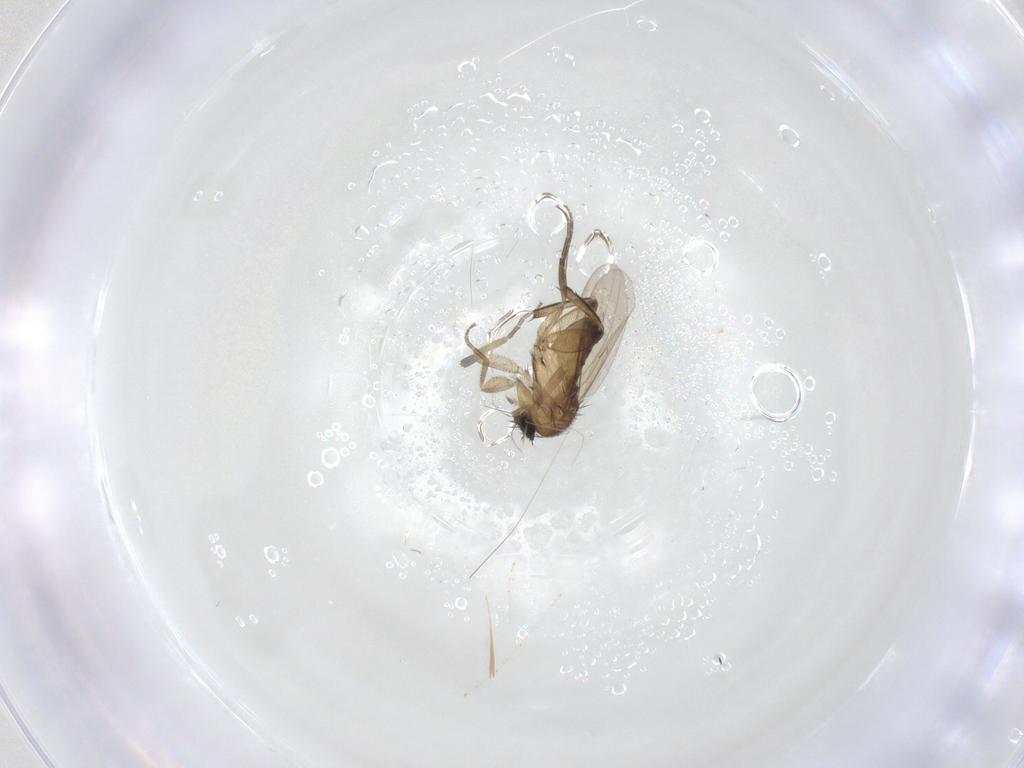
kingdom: Animalia
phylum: Arthropoda
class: Insecta
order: Diptera
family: Phoridae
